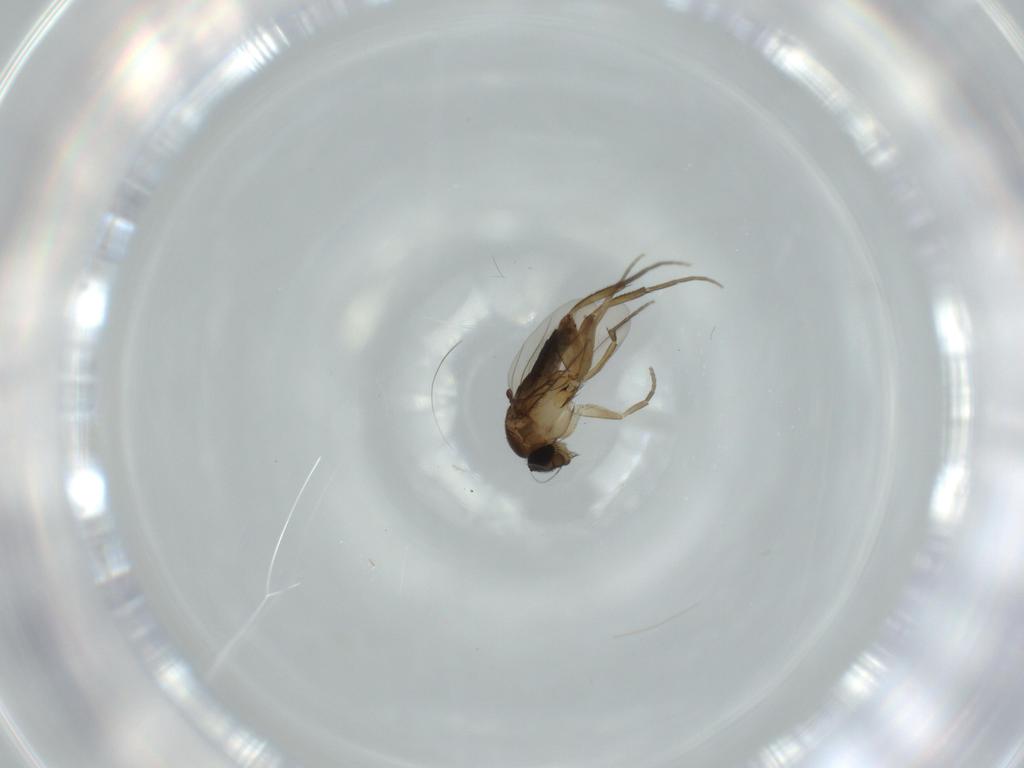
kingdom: Animalia
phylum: Arthropoda
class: Insecta
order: Diptera
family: Phoridae
